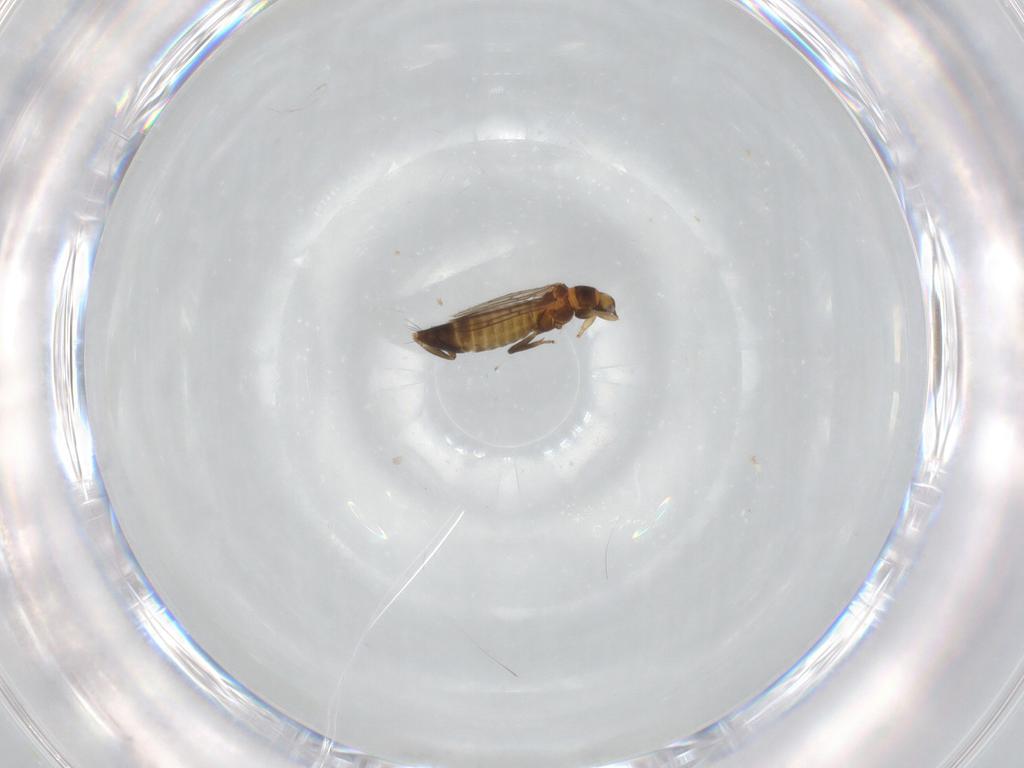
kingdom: Animalia
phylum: Arthropoda
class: Insecta
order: Thysanoptera
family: Aeolothripidae
